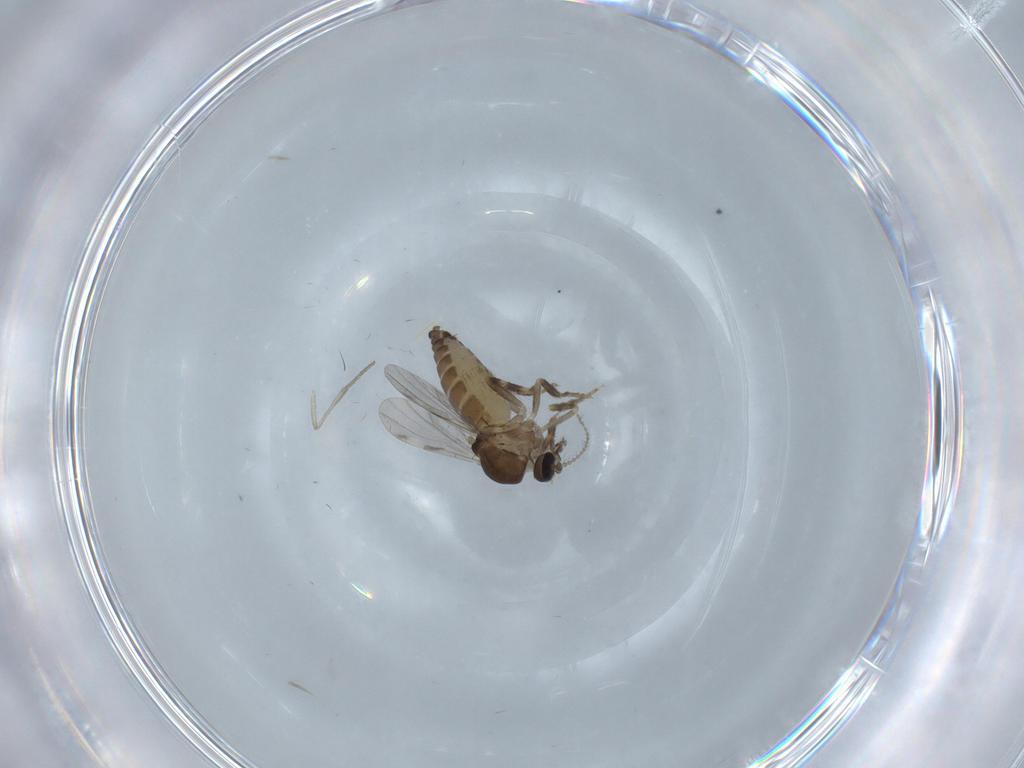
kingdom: Animalia
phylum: Arthropoda
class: Insecta
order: Diptera
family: Ceratopogonidae
